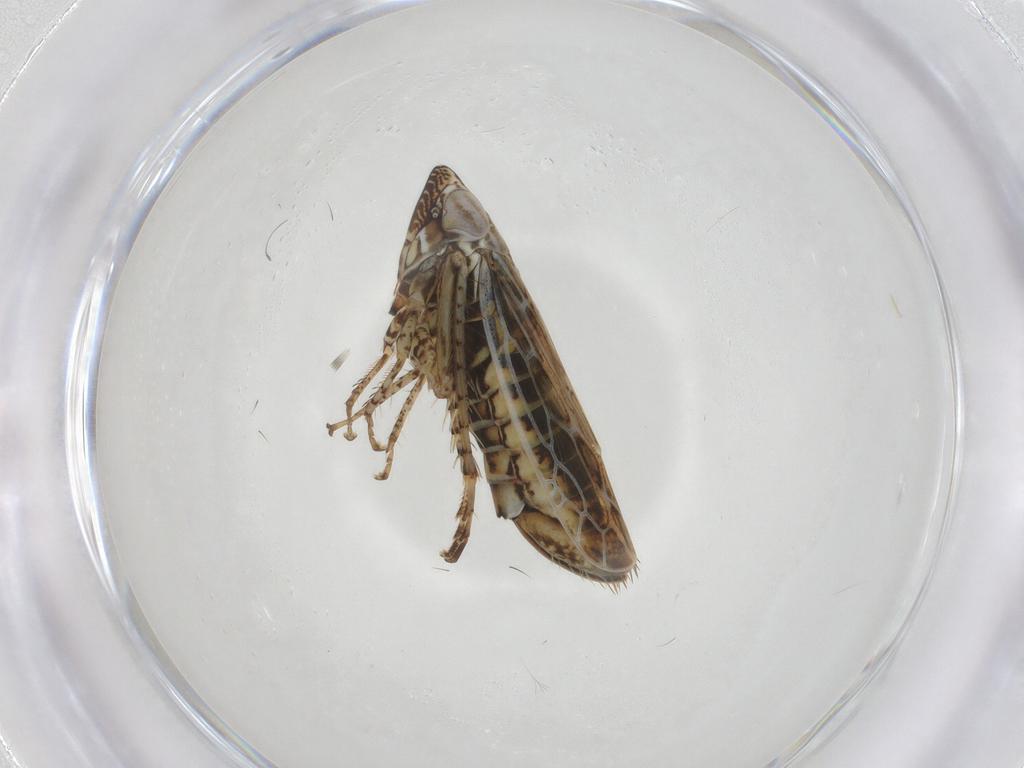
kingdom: Animalia
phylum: Arthropoda
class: Insecta
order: Hemiptera
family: Cicadellidae
